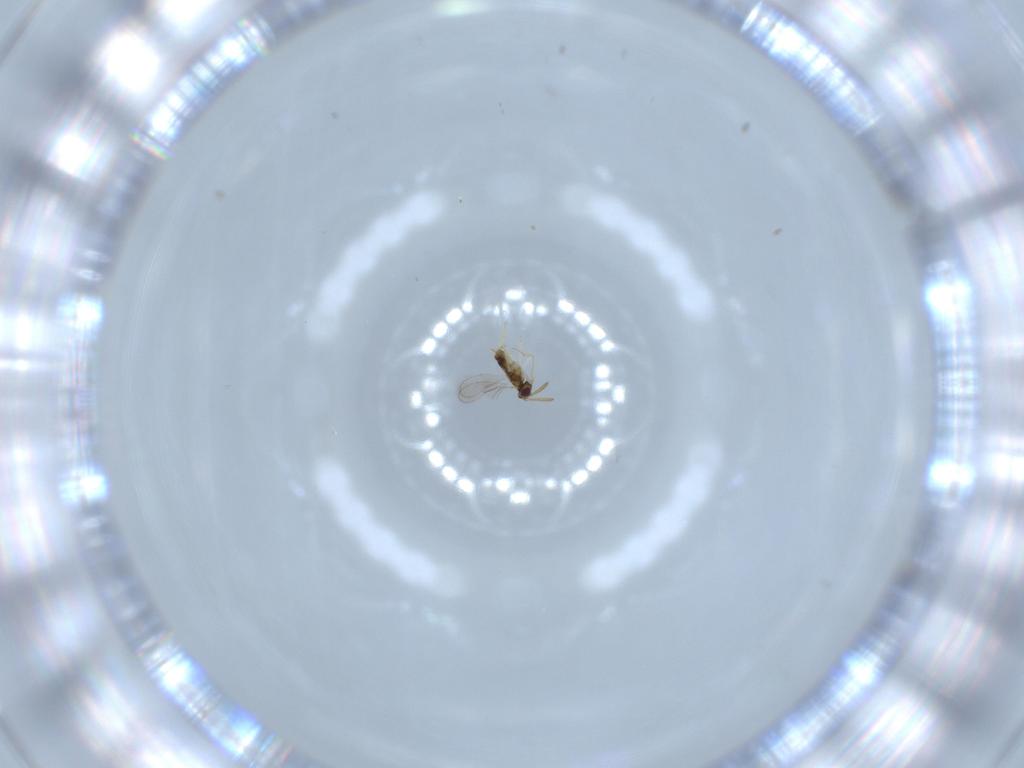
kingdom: Animalia
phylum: Arthropoda
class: Insecta
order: Hymenoptera
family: Aphelinidae
